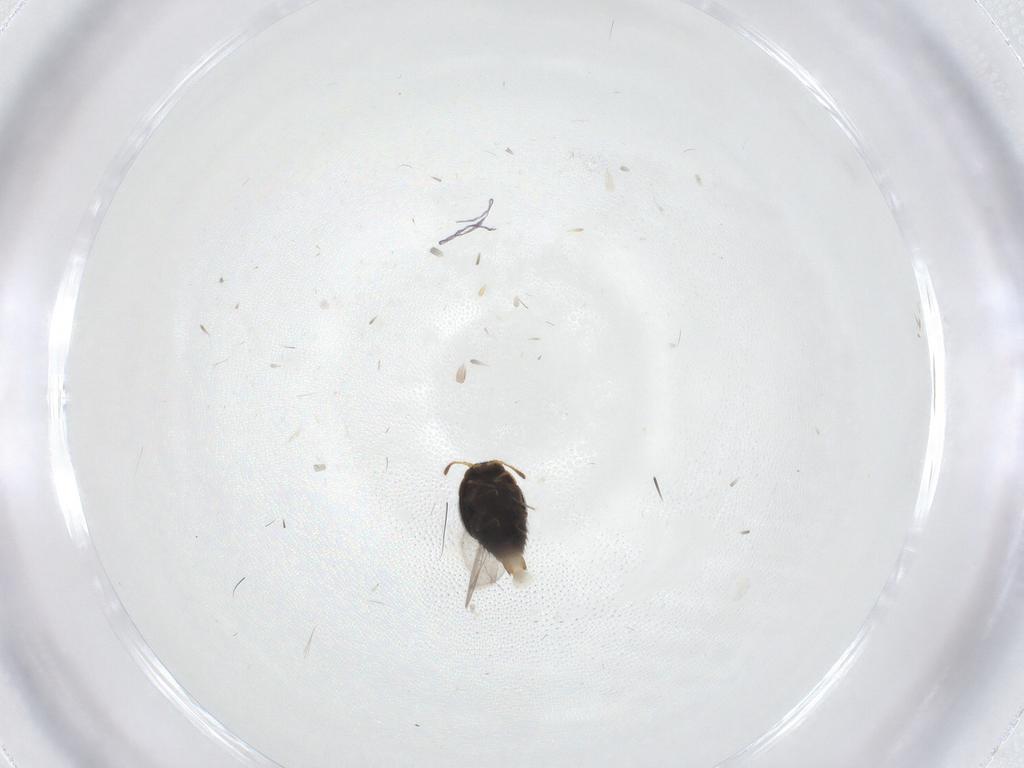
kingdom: Animalia
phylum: Arthropoda
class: Insecta
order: Coleoptera
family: Staphylinidae
